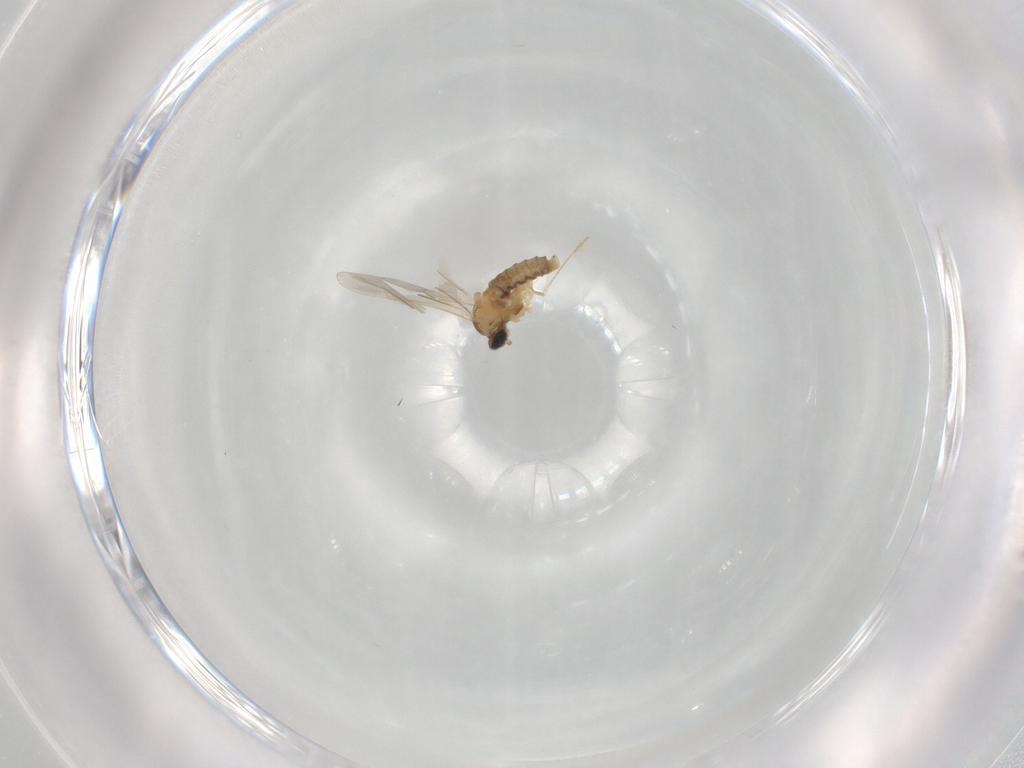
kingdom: Animalia
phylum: Arthropoda
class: Insecta
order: Diptera
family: Cecidomyiidae
